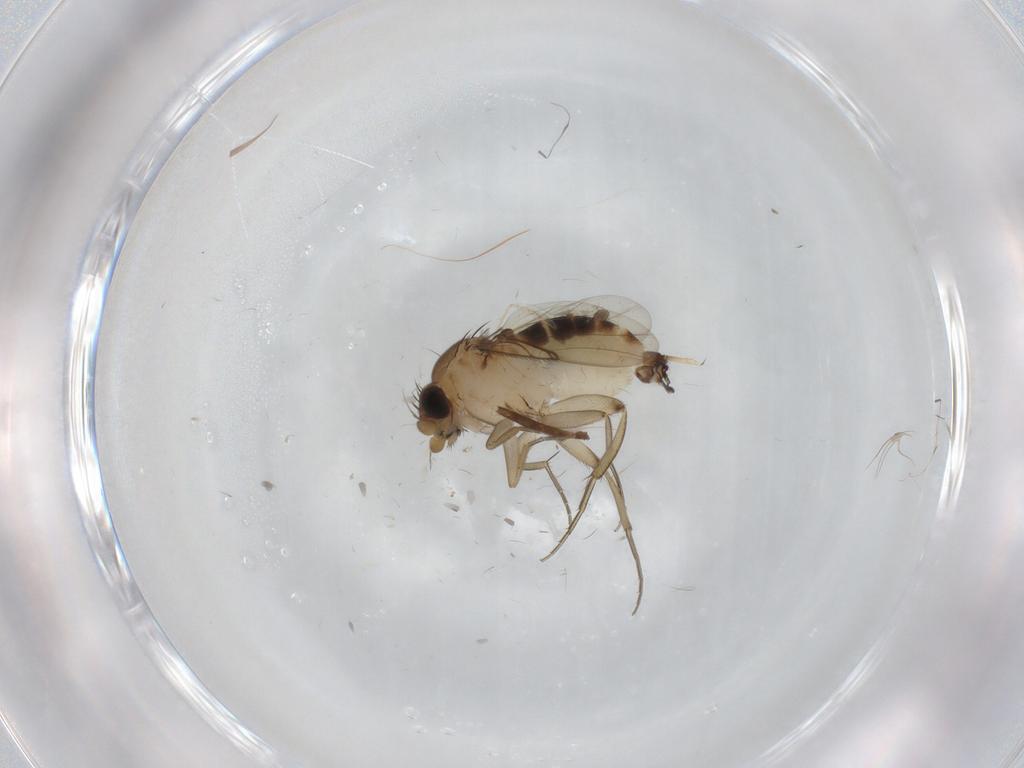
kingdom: Animalia
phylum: Arthropoda
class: Insecta
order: Diptera
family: Phoridae
